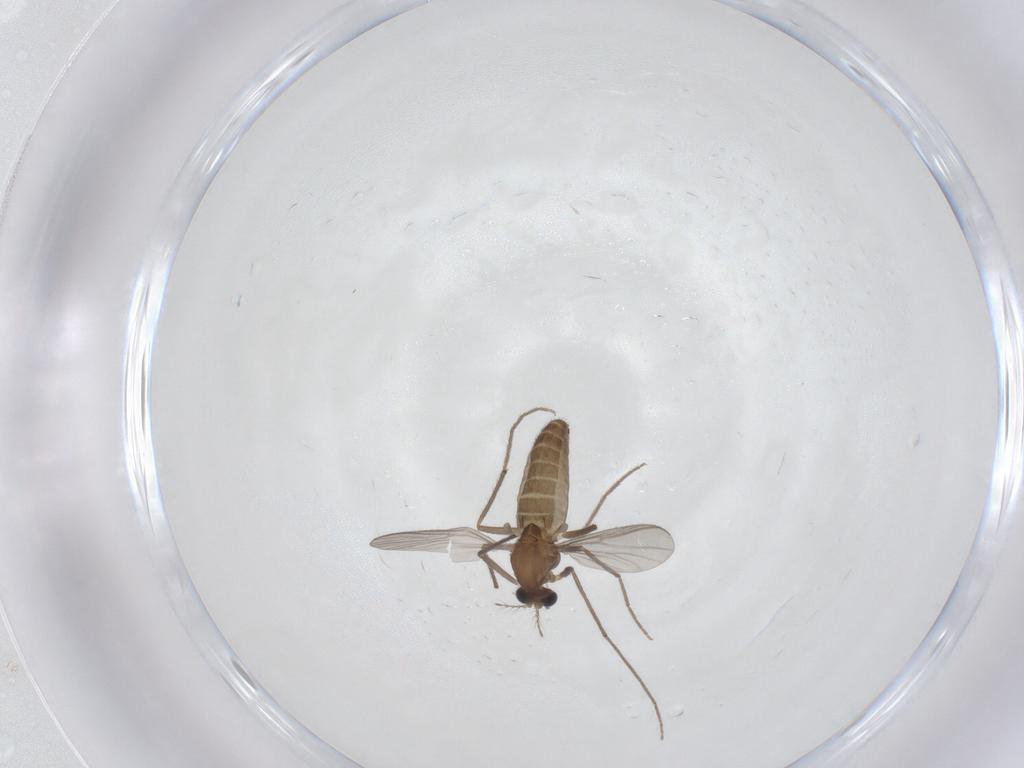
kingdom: Animalia
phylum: Arthropoda
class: Insecta
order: Diptera
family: Chironomidae
